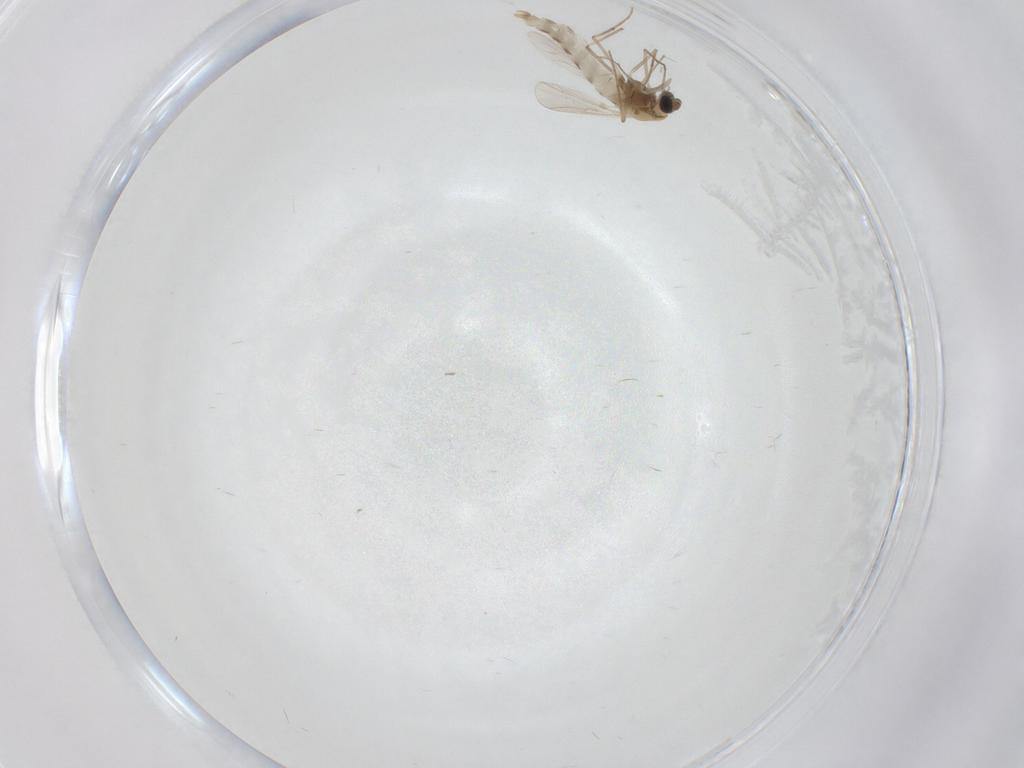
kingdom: Animalia
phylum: Arthropoda
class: Insecta
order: Diptera
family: Chironomidae
